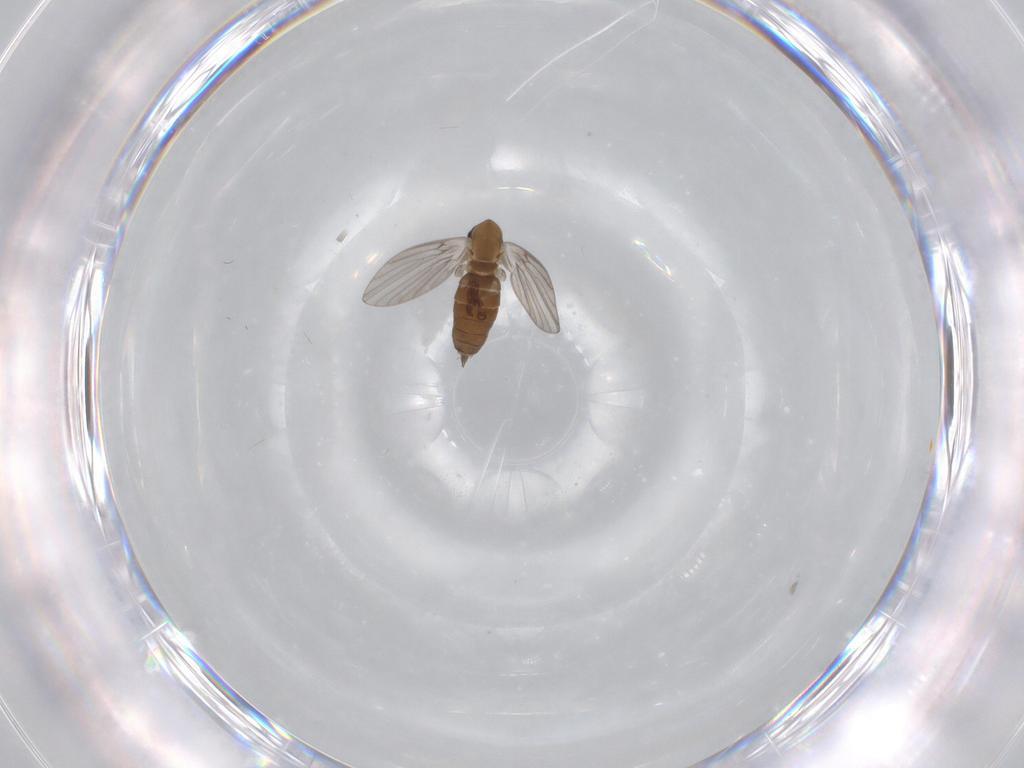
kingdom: Animalia
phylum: Arthropoda
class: Insecta
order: Diptera
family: Psychodidae
